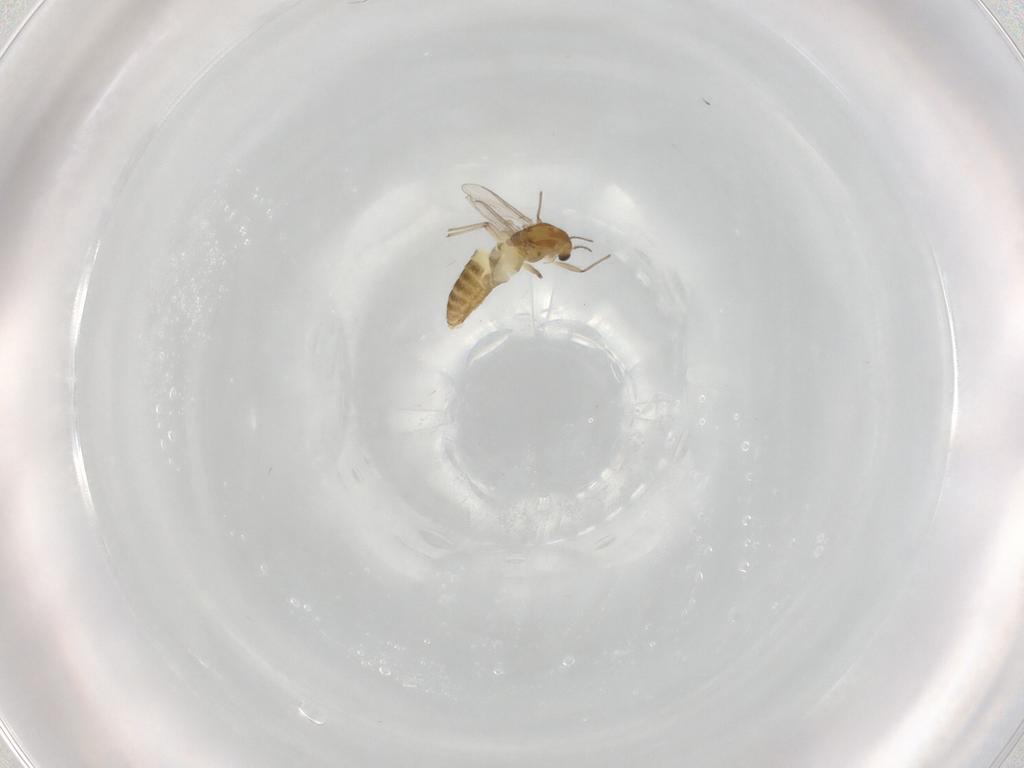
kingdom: Animalia
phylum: Arthropoda
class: Insecta
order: Diptera
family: Chironomidae
